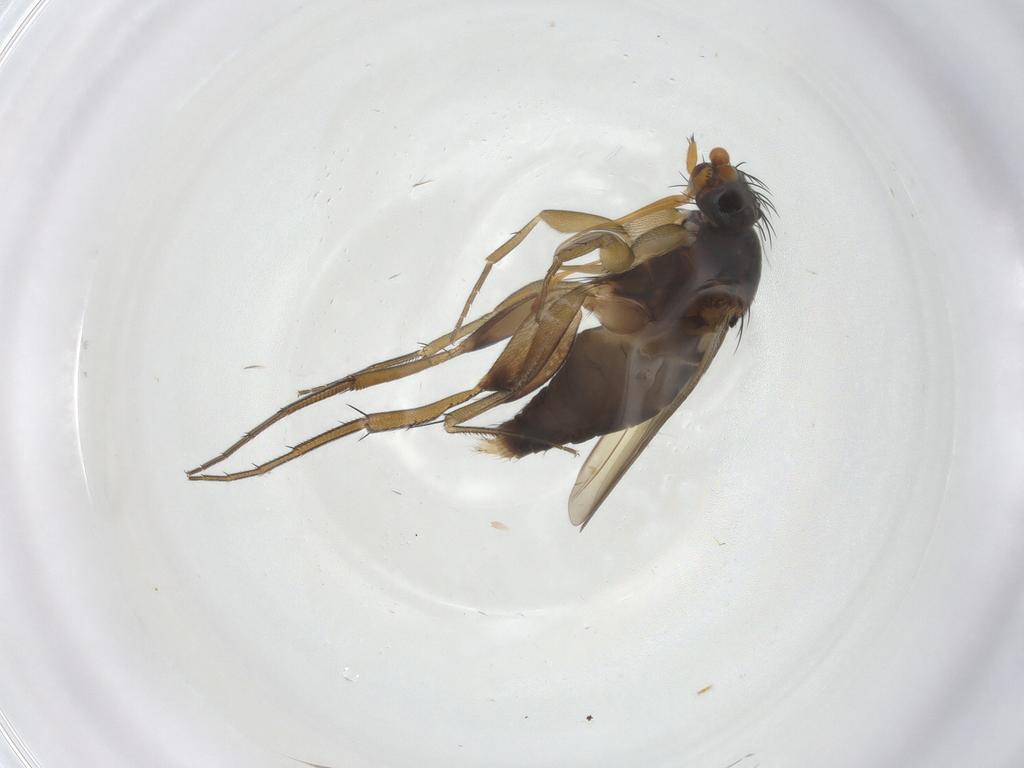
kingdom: Animalia
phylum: Arthropoda
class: Insecta
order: Diptera
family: Phoridae
